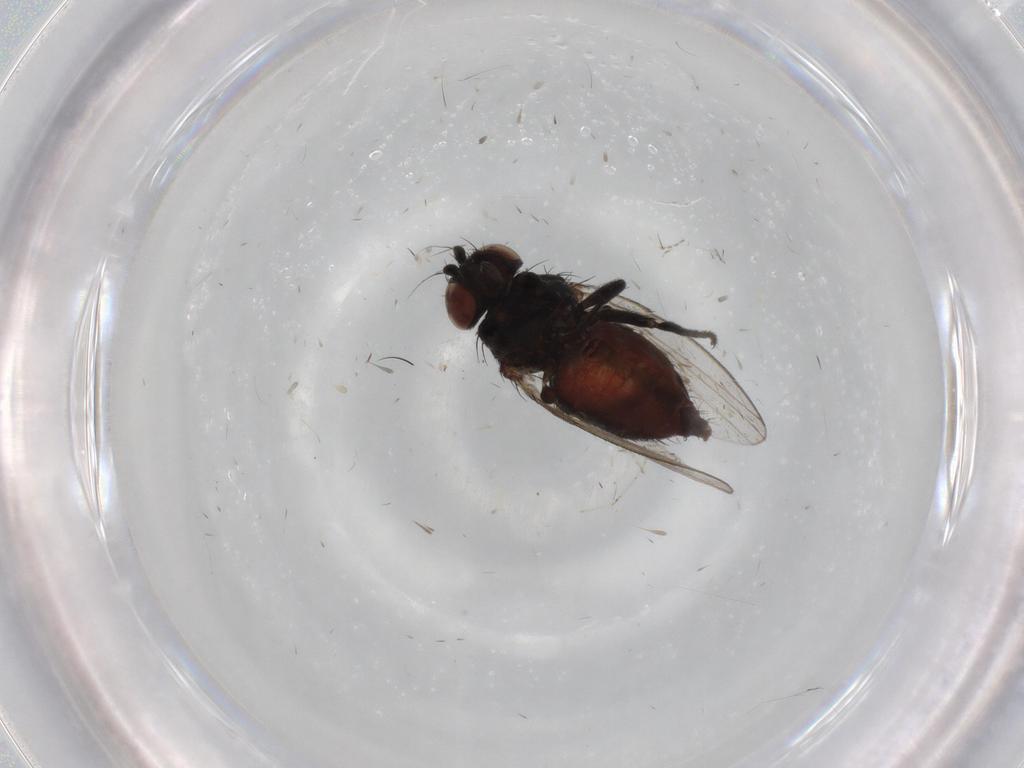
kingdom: Animalia
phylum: Arthropoda
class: Insecta
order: Diptera
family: Milichiidae
